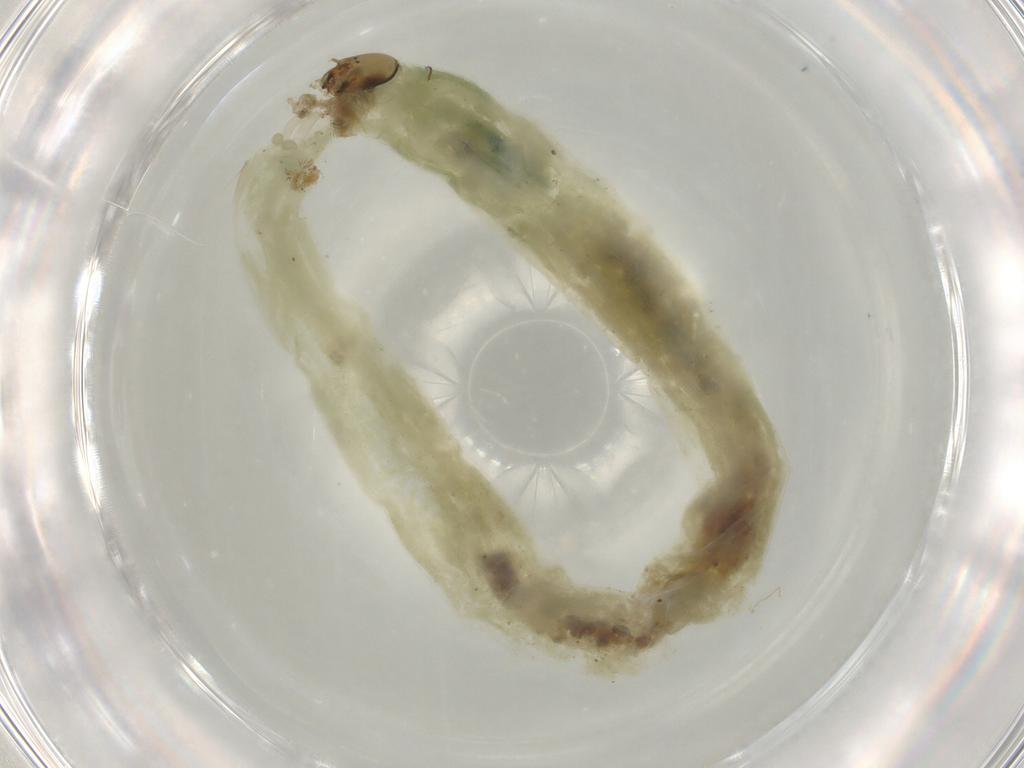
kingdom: Animalia
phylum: Arthropoda
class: Insecta
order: Diptera
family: Chironomidae
